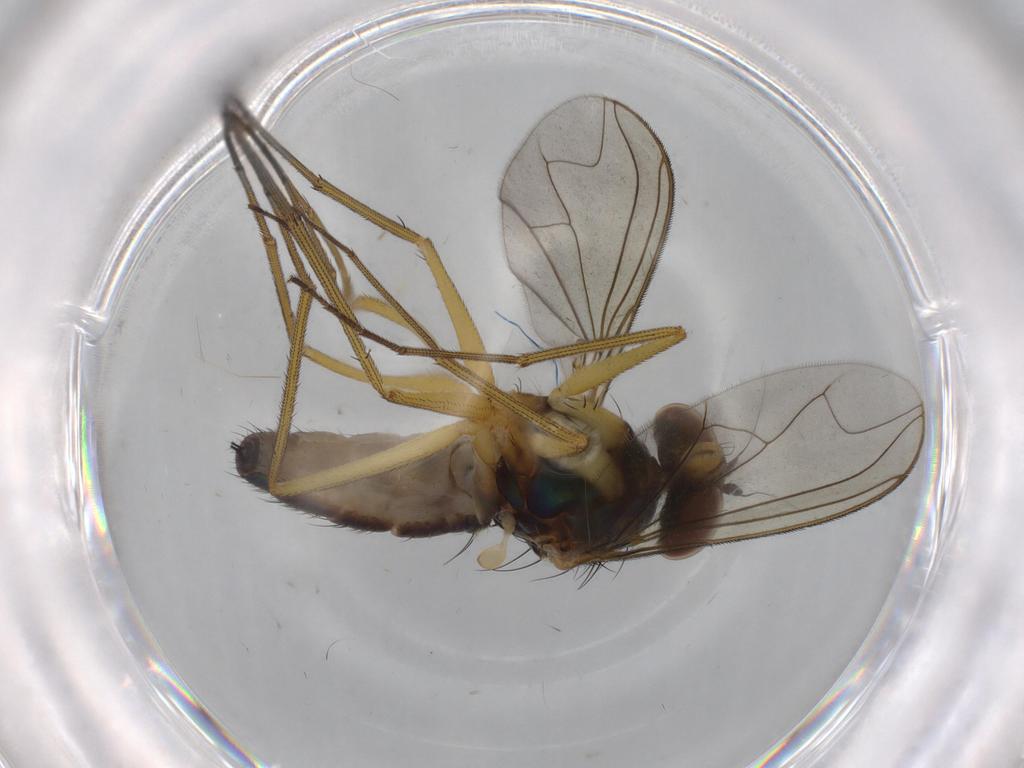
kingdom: Animalia
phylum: Arthropoda
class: Insecta
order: Diptera
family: Dolichopodidae
